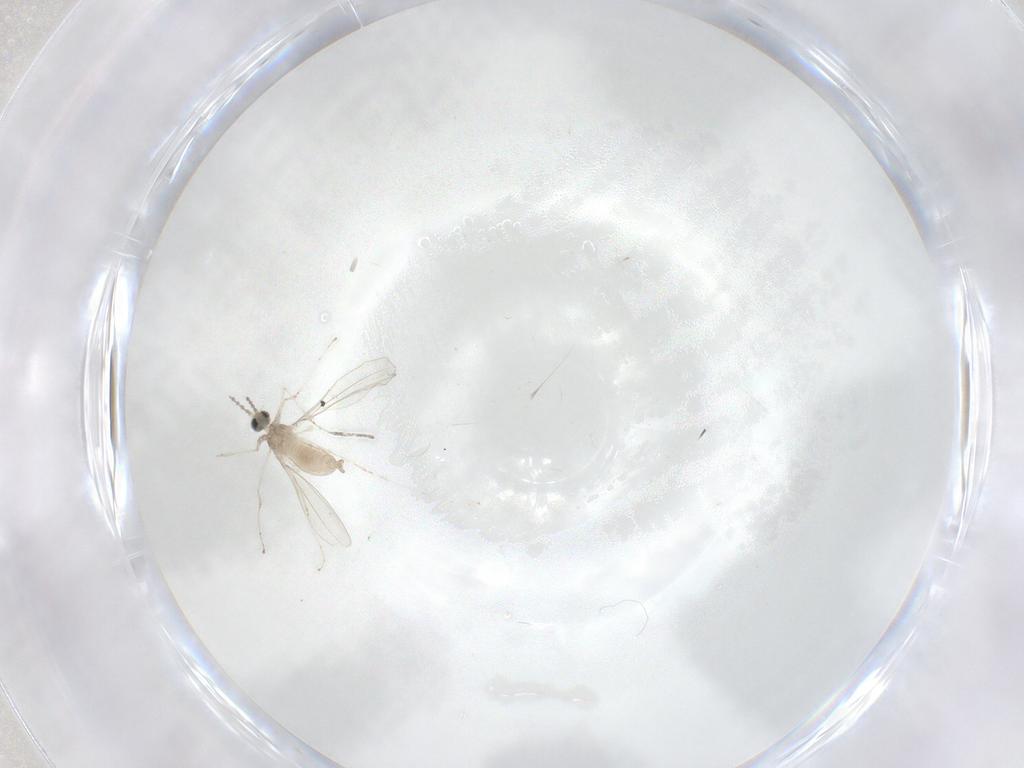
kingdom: Animalia
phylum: Arthropoda
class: Insecta
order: Diptera
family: Cecidomyiidae
